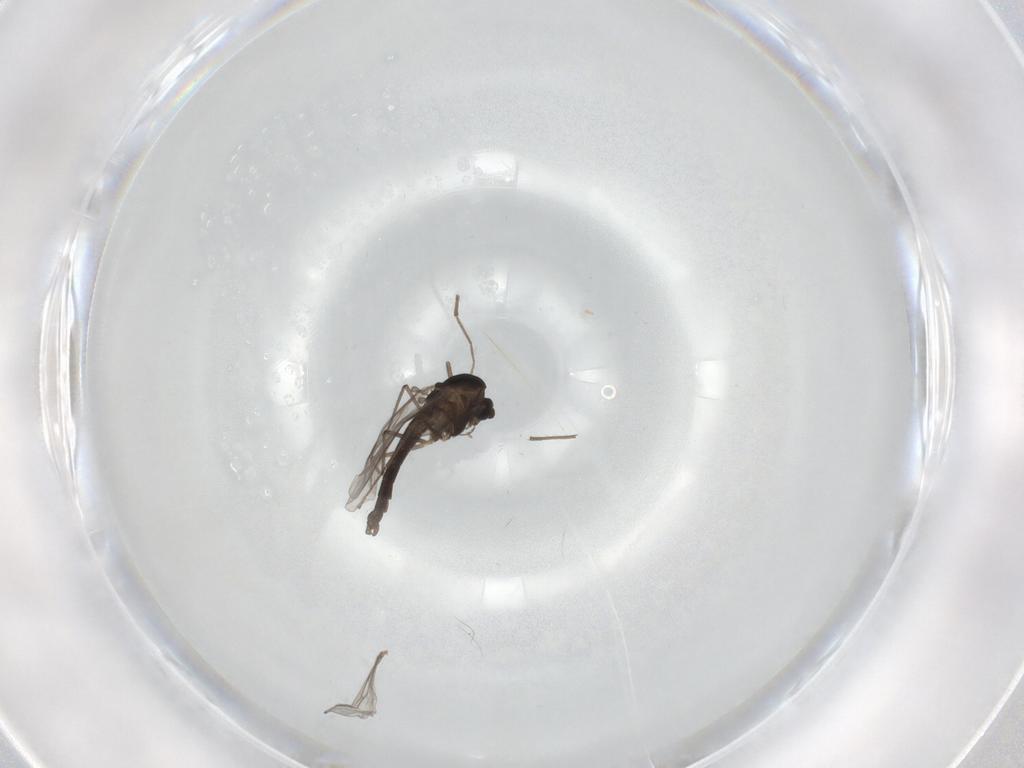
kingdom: Animalia
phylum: Arthropoda
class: Insecta
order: Diptera
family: Chironomidae
